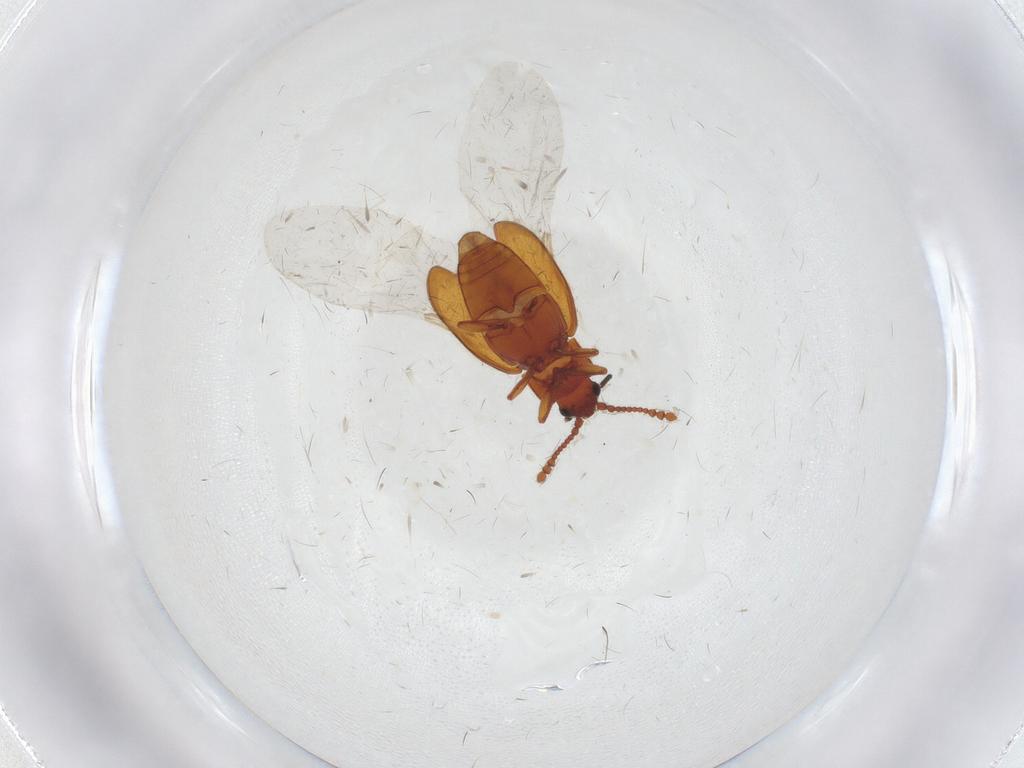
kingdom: Animalia
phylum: Arthropoda
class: Insecta
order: Coleoptera
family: Cryptophagidae
